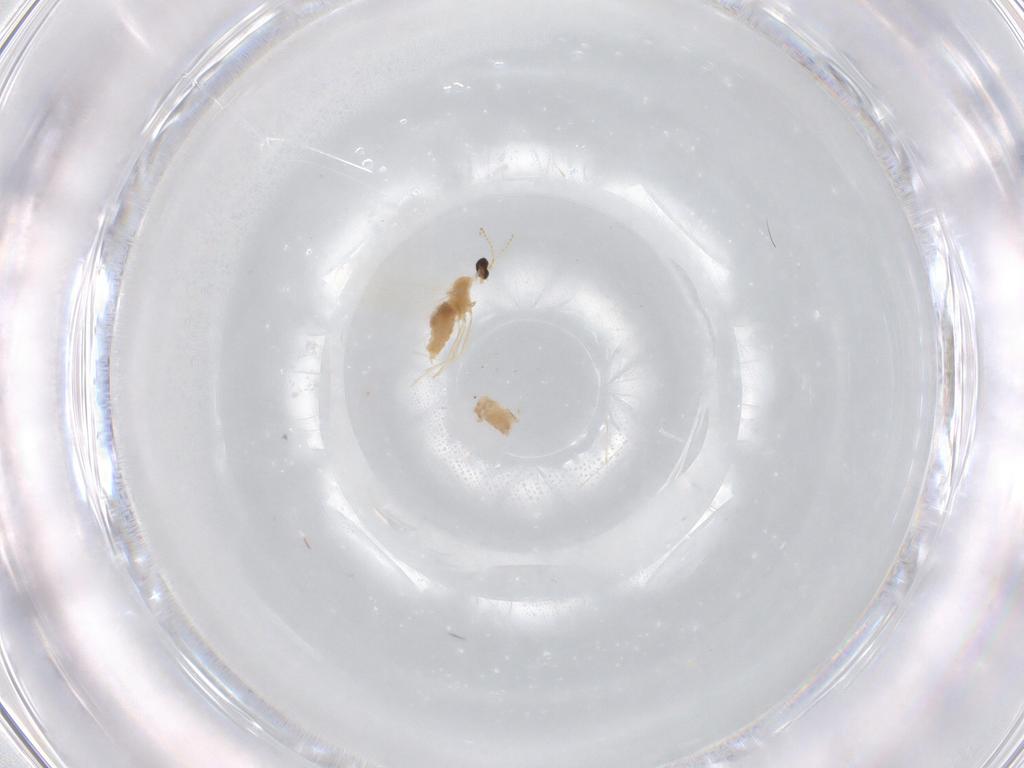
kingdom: Animalia
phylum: Arthropoda
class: Insecta
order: Diptera
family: Cecidomyiidae
